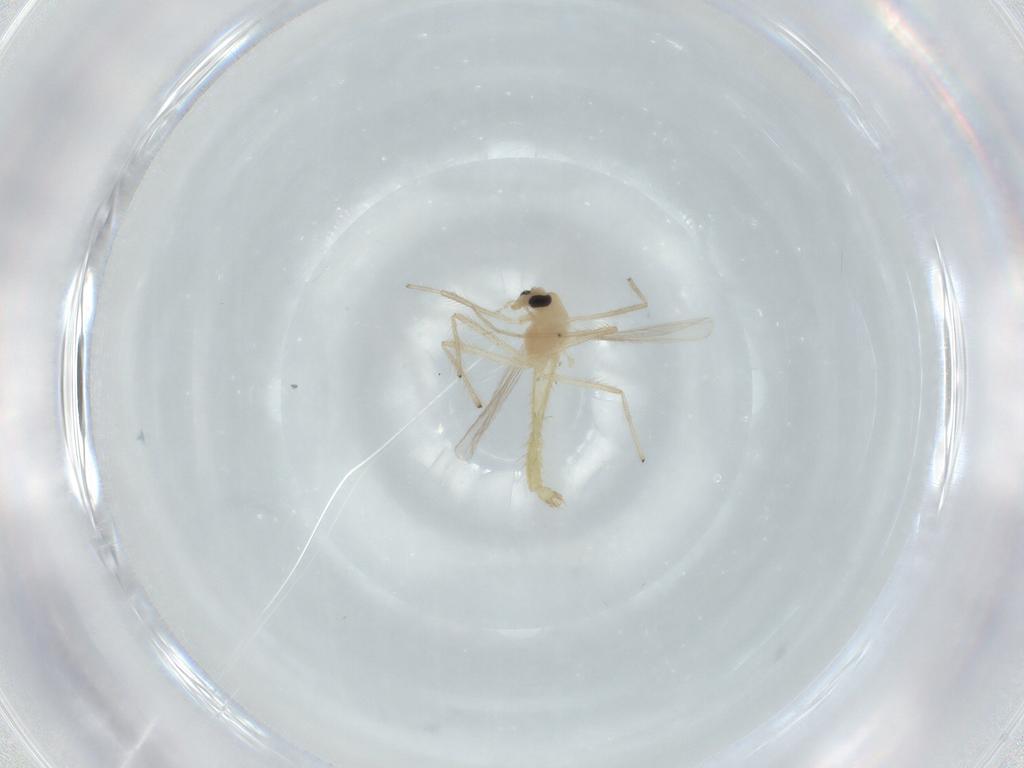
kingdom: Animalia
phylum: Arthropoda
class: Insecta
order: Diptera
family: Chironomidae
